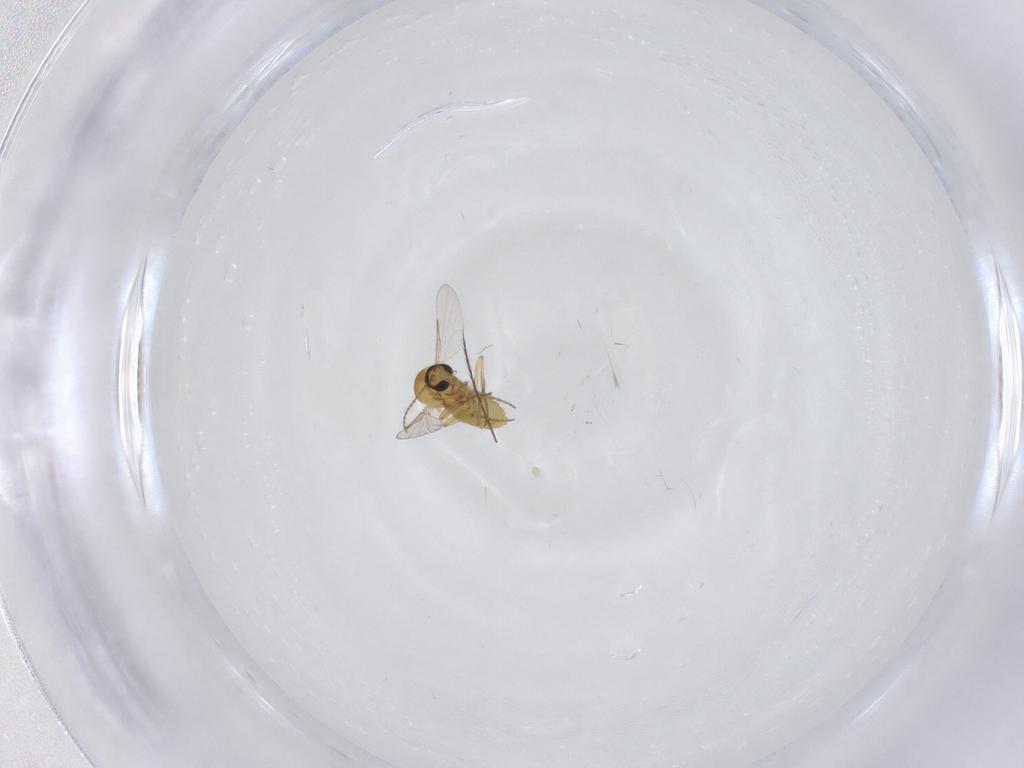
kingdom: Animalia
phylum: Arthropoda
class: Insecta
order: Diptera
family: Ceratopogonidae
